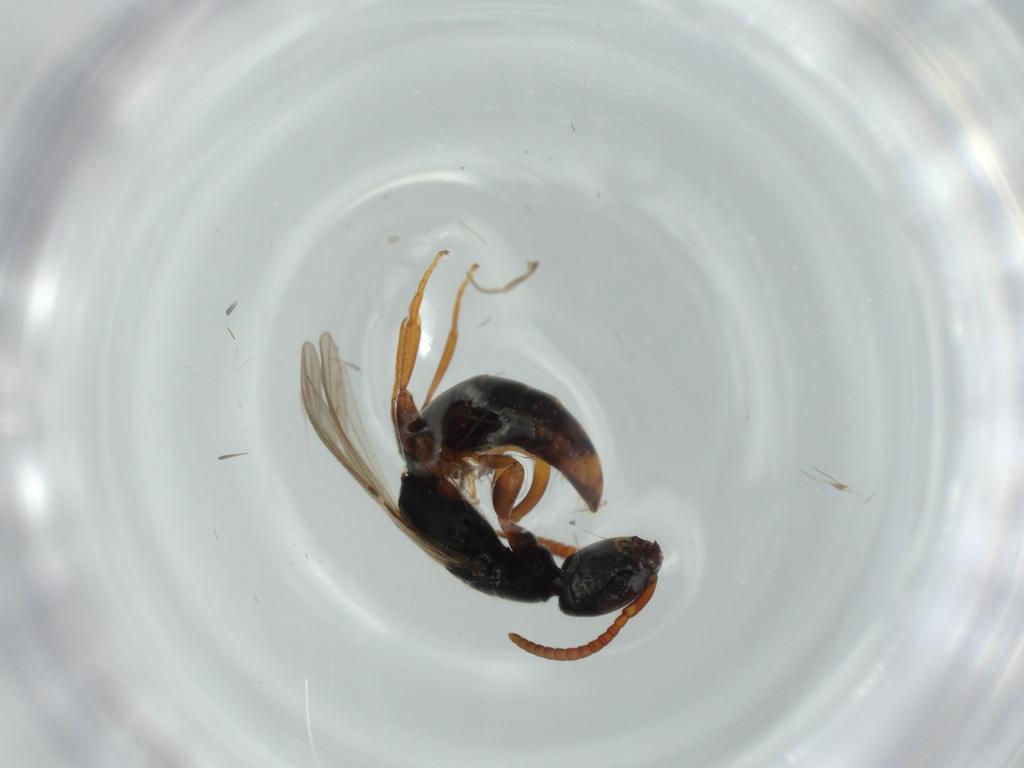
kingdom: Animalia
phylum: Arthropoda
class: Insecta
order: Hymenoptera
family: Bethylidae
